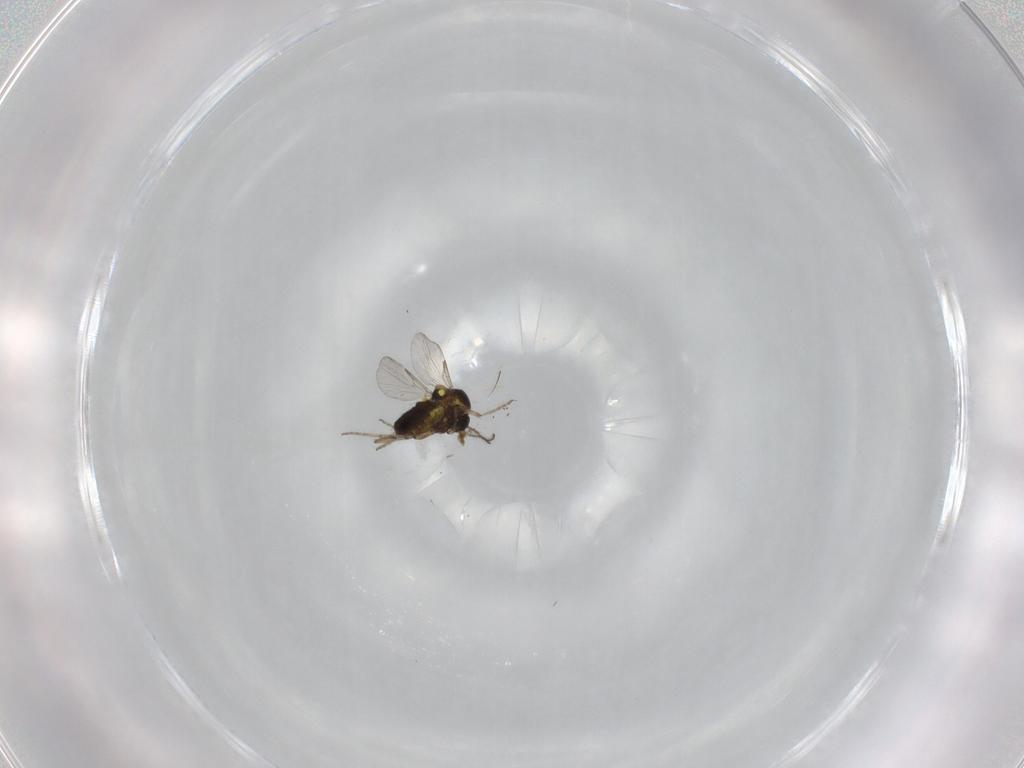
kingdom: Animalia
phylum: Arthropoda
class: Insecta
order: Diptera
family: Ceratopogonidae
